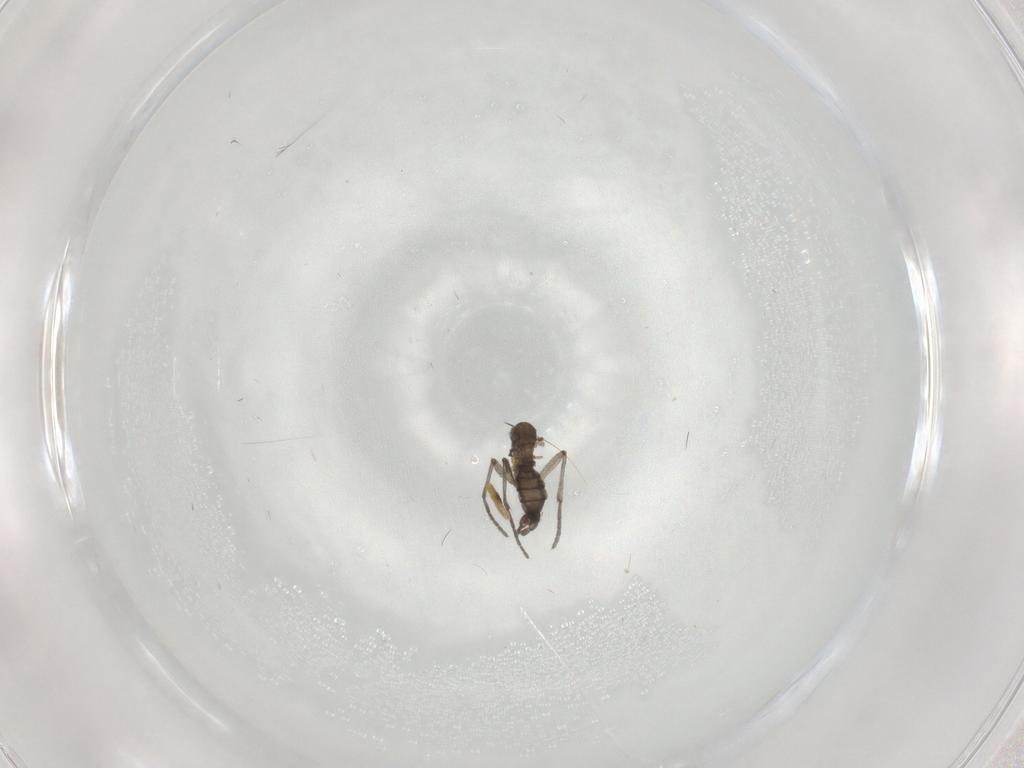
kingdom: Animalia
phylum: Arthropoda
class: Insecta
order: Diptera
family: Sciaridae
